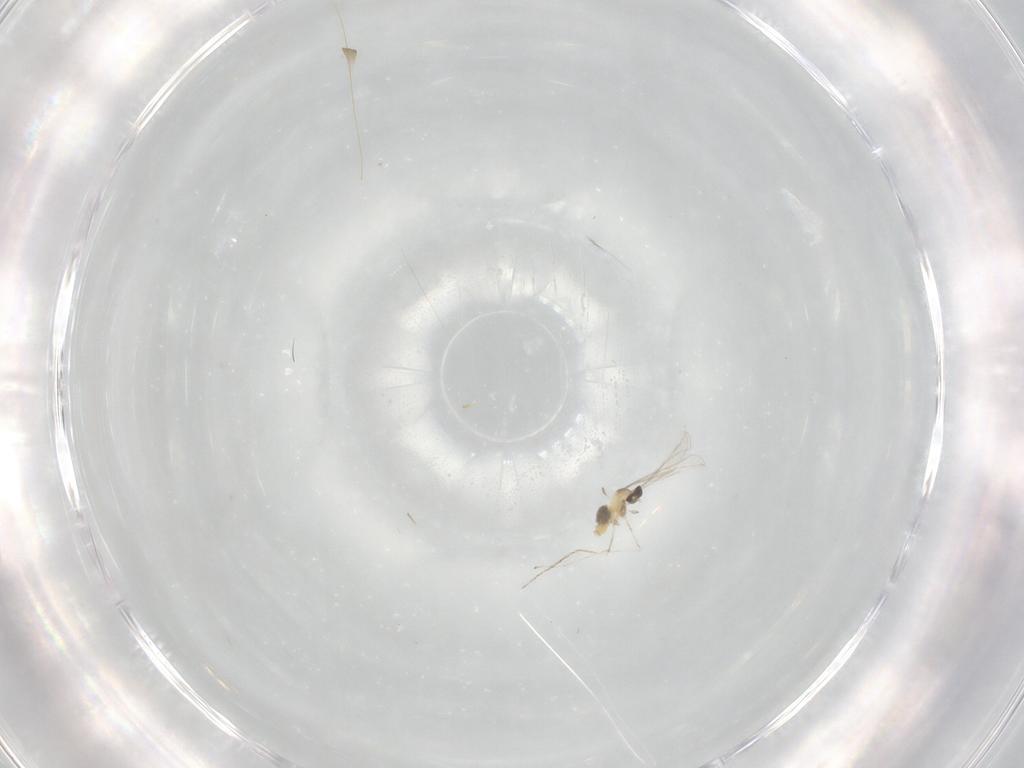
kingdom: Animalia
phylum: Arthropoda
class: Insecta
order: Diptera
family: Cecidomyiidae
